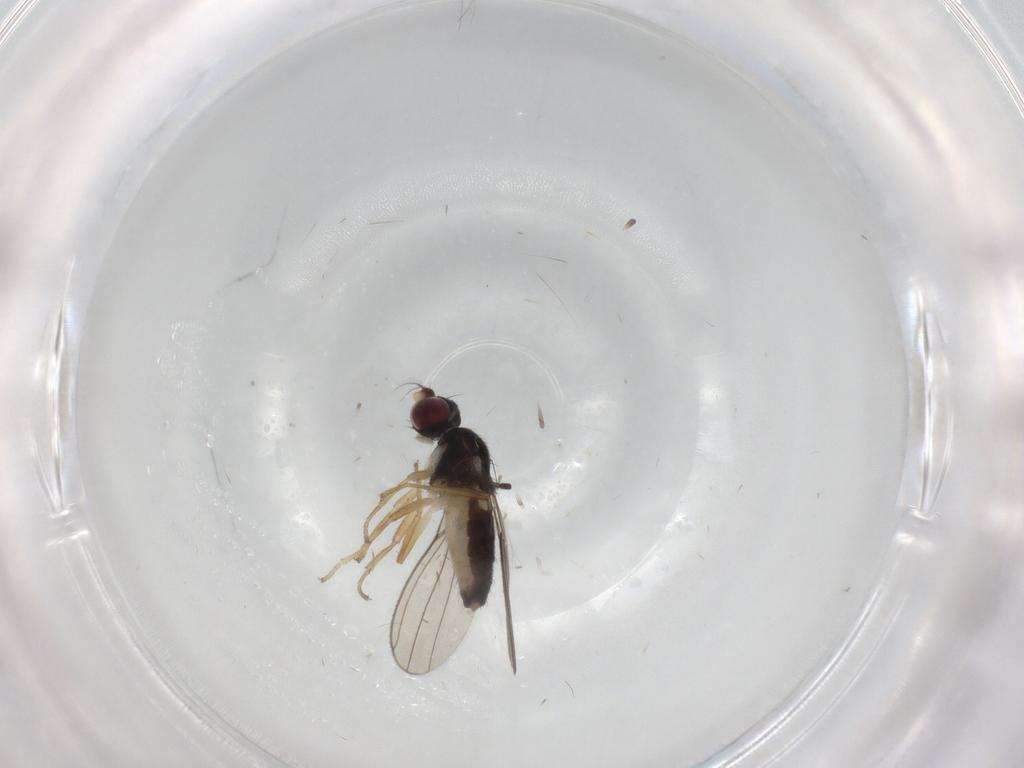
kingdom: Animalia
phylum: Arthropoda
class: Insecta
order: Diptera
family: Anthomyzidae
